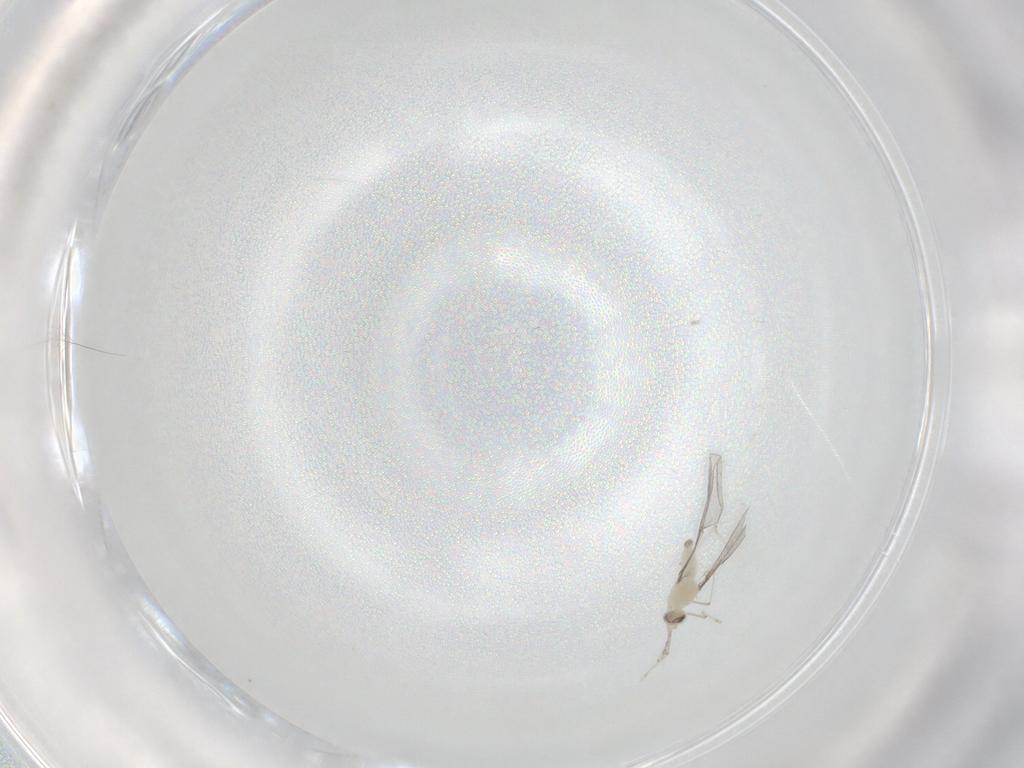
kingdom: Animalia
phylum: Arthropoda
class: Insecta
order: Diptera
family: Cecidomyiidae
